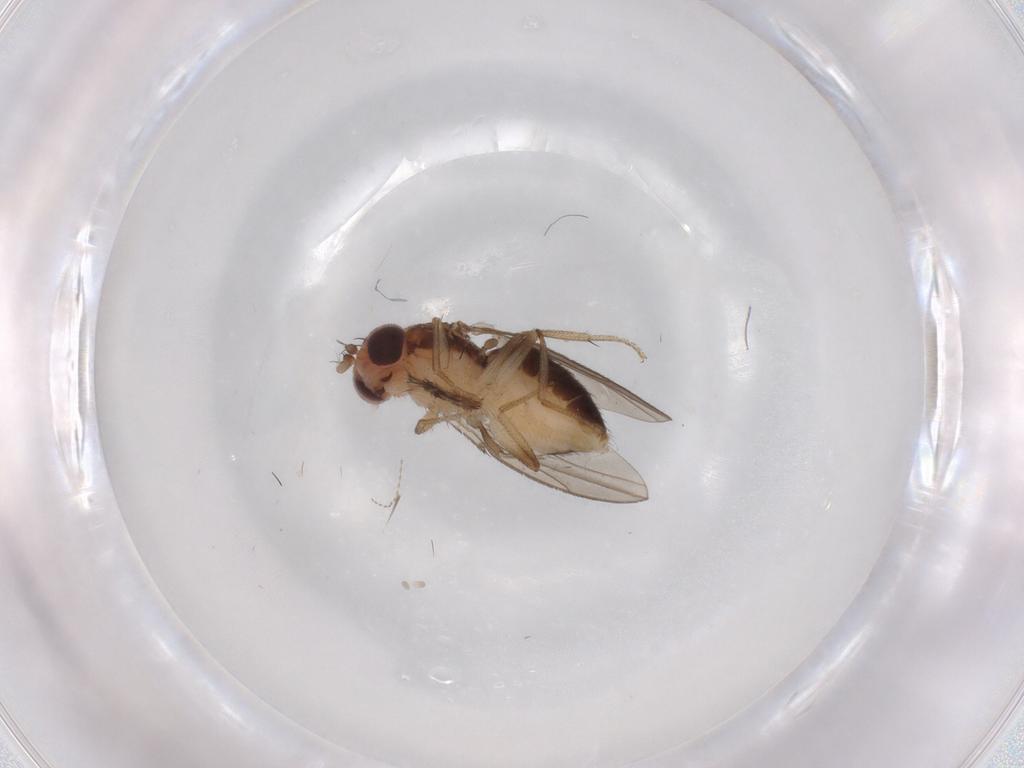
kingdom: Animalia
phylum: Arthropoda
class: Insecta
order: Diptera
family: Drosophilidae
